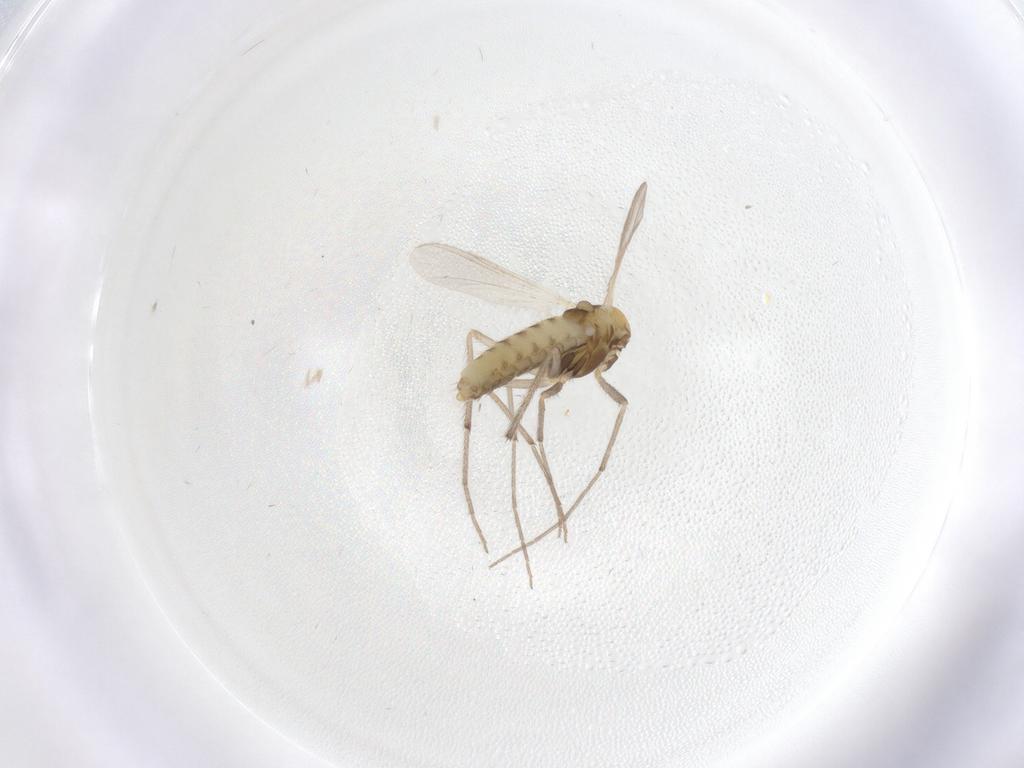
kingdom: Animalia
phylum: Arthropoda
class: Insecta
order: Diptera
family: Chironomidae
